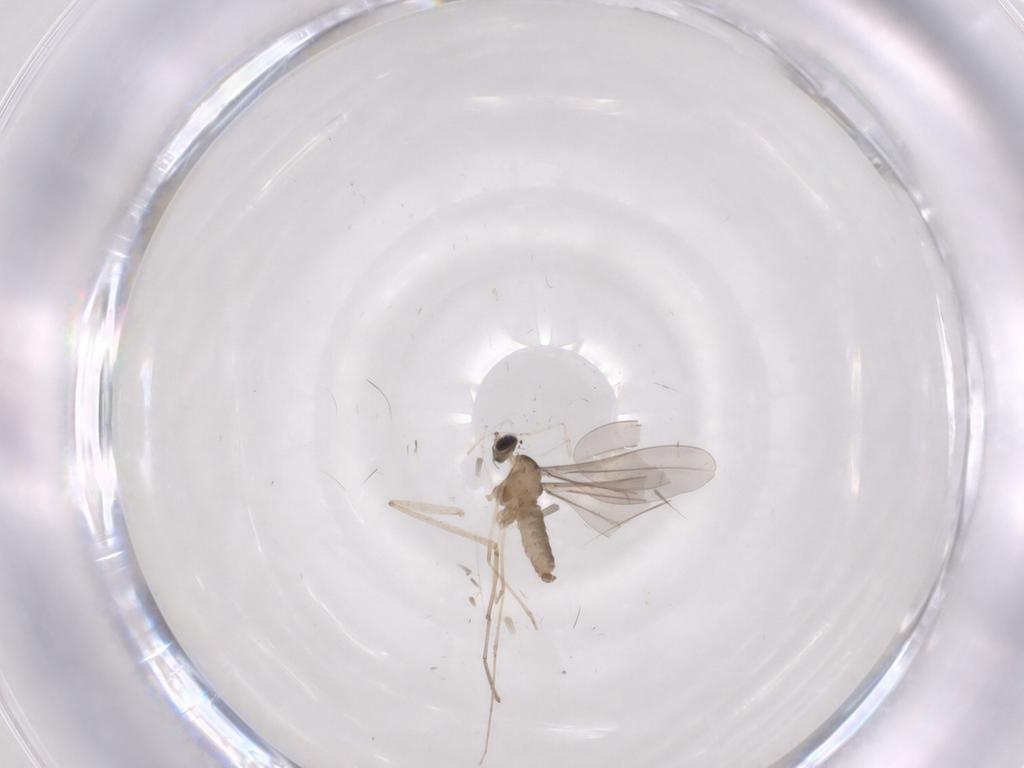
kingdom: Animalia
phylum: Arthropoda
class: Insecta
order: Diptera
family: Cecidomyiidae
